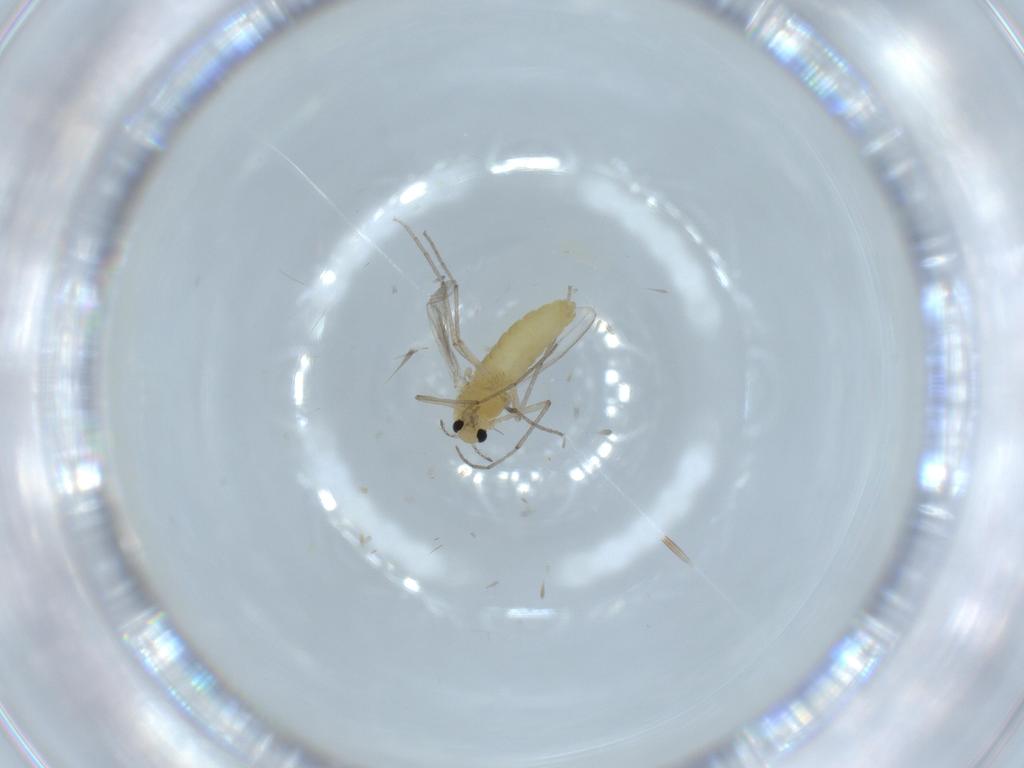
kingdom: Animalia
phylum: Arthropoda
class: Insecta
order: Diptera
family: Chironomidae
